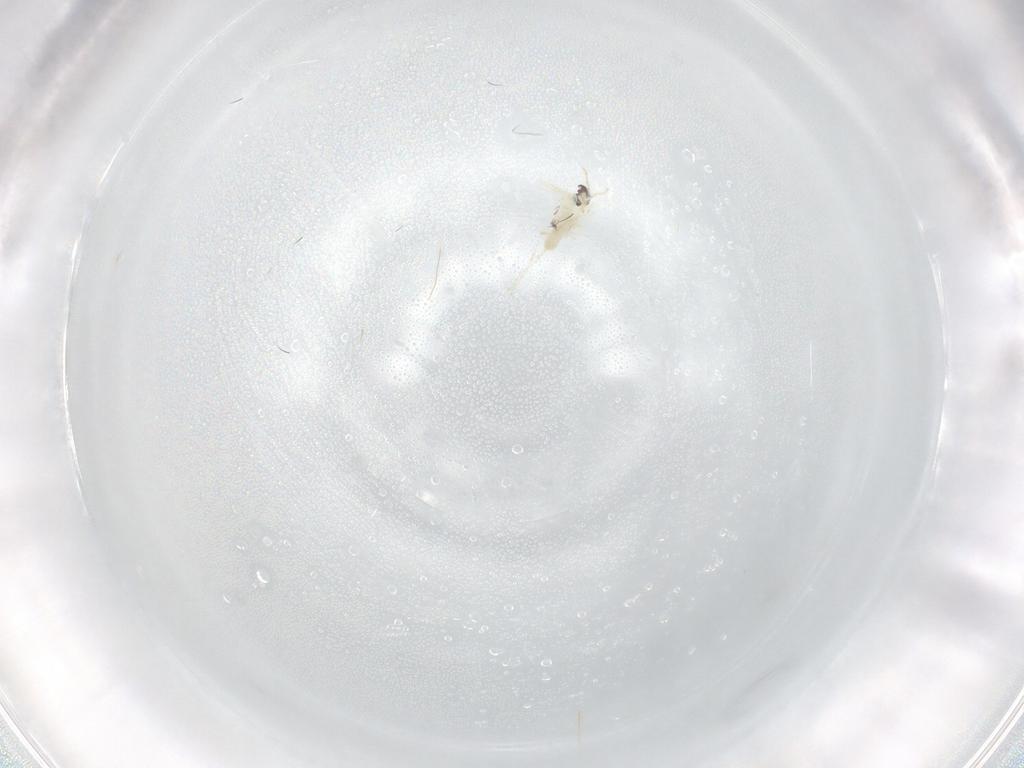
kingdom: Animalia
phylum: Arthropoda
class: Insecta
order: Diptera
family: Cecidomyiidae
